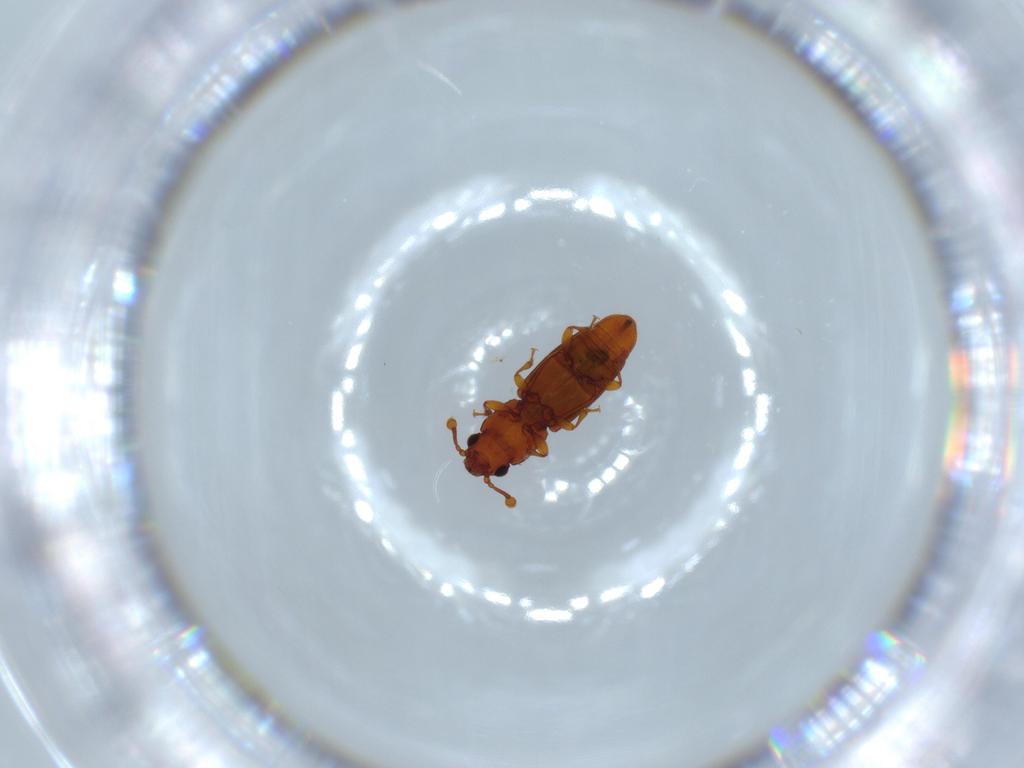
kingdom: Animalia
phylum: Arthropoda
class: Insecta
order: Coleoptera
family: Monotomidae
